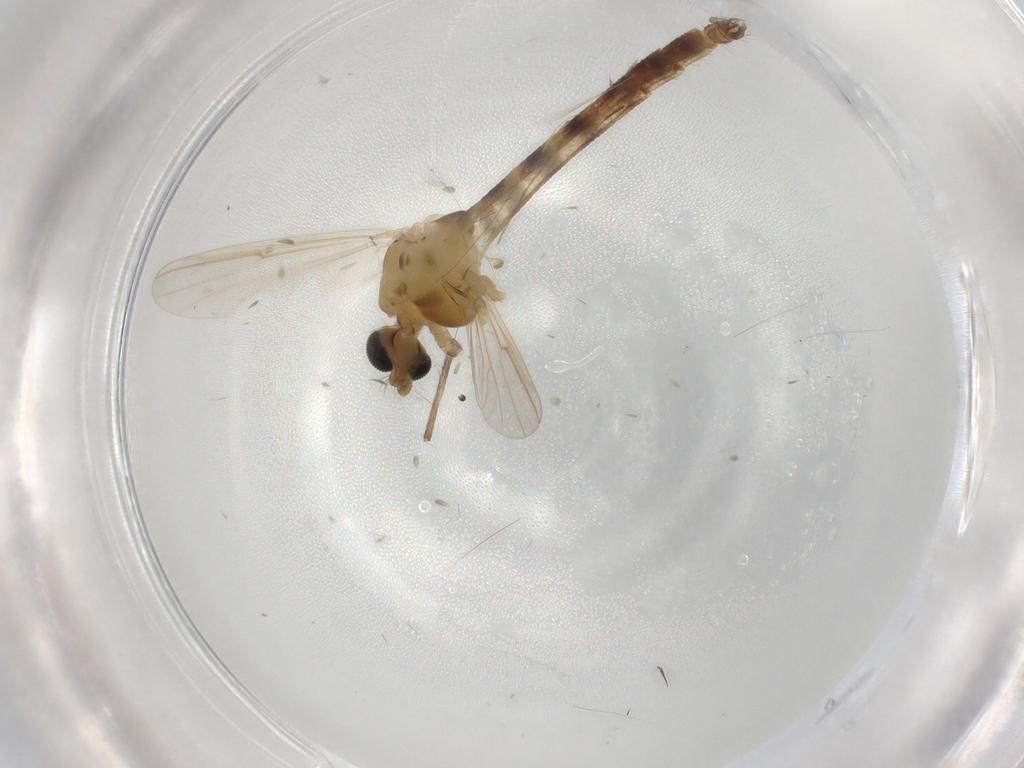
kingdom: Animalia
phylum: Arthropoda
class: Insecta
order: Diptera
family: Chironomidae
